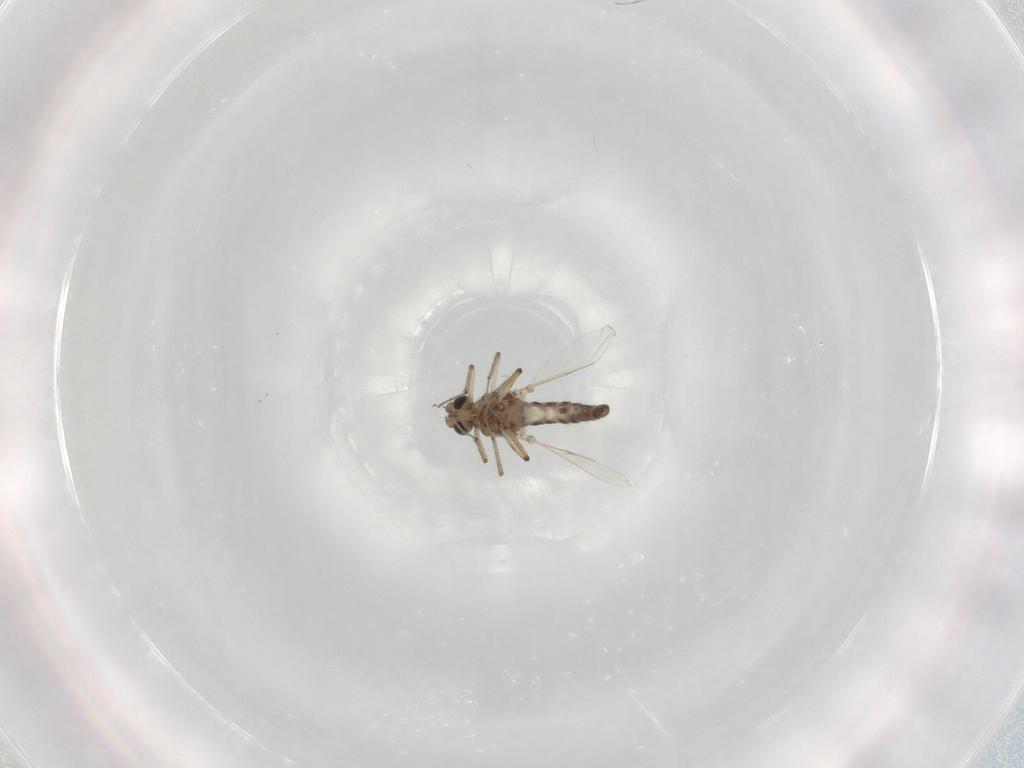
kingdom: Animalia
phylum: Arthropoda
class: Insecta
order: Diptera
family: Ceratopogonidae
